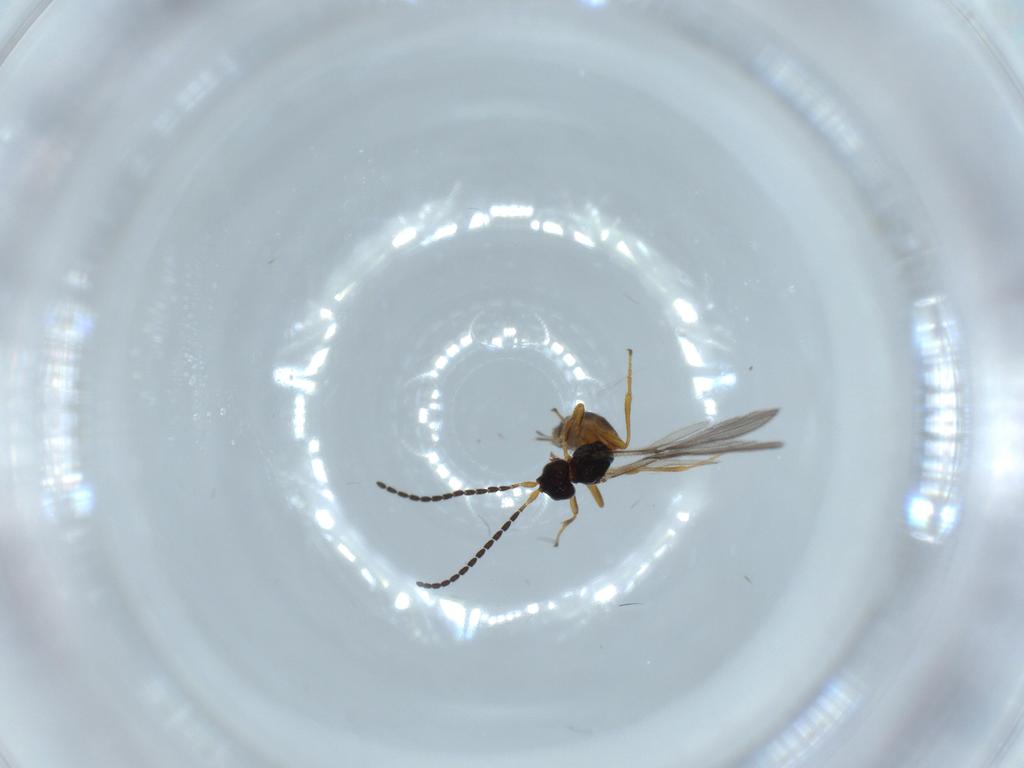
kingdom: Animalia
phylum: Arthropoda
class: Insecta
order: Hymenoptera
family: Braconidae
